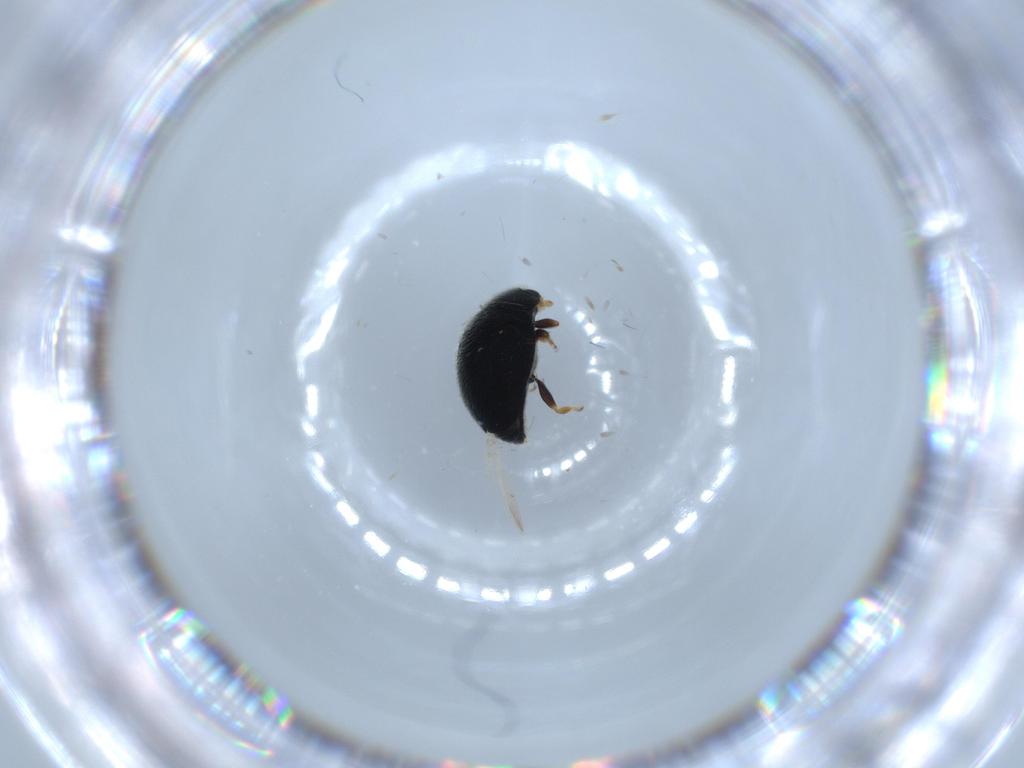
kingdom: Animalia
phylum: Arthropoda
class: Insecta
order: Coleoptera
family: Coccinellidae
